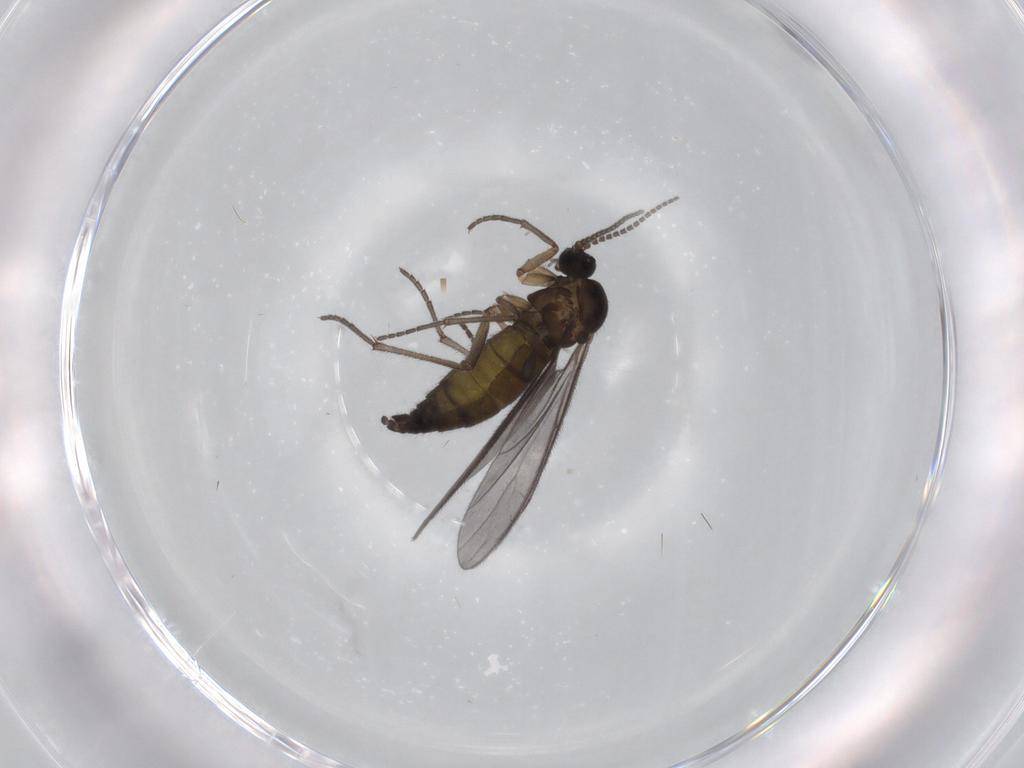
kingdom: Animalia
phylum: Arthropoda
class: Insecta
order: Diptera
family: Sciaridae
